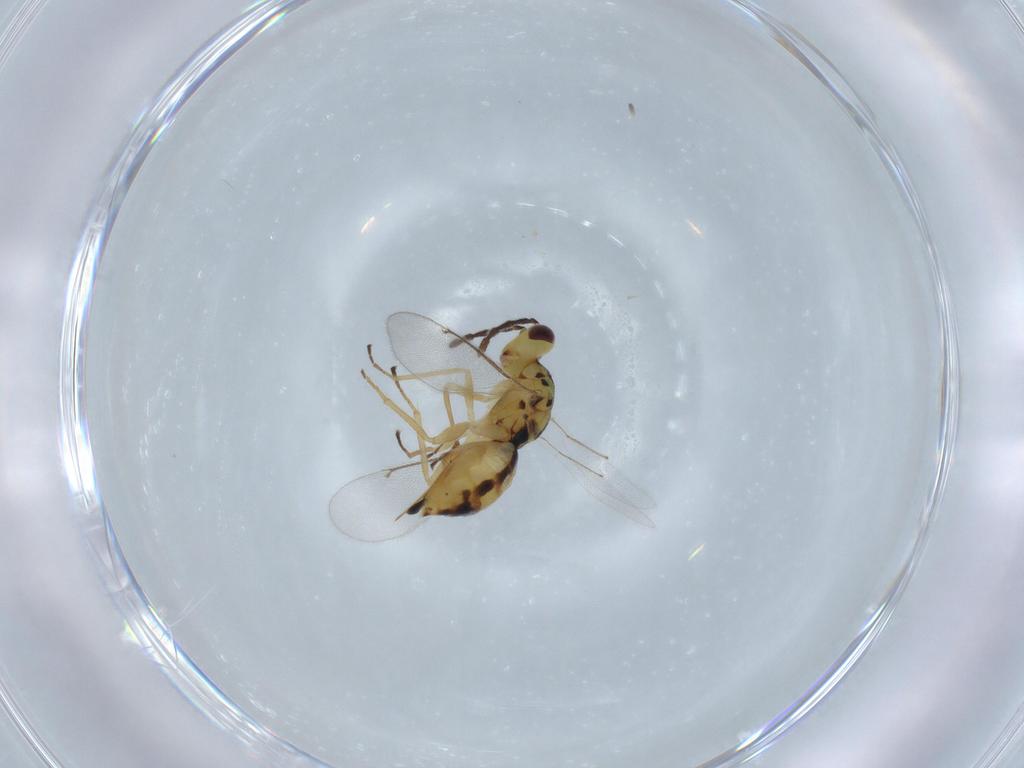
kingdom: Animalia
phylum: Arthropoda
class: Insecta
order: Hymenoptera
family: Eulophidae
